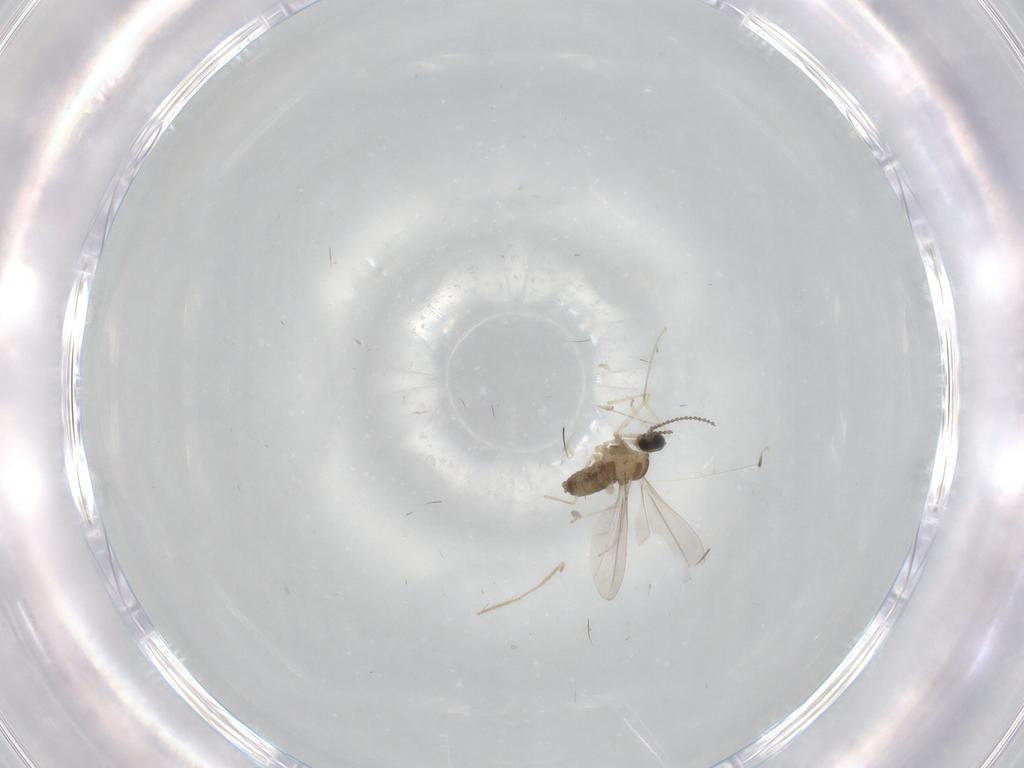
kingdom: Animalia
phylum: Arthropoda
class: Insecta
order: Diptera
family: Cecidomyiidae
